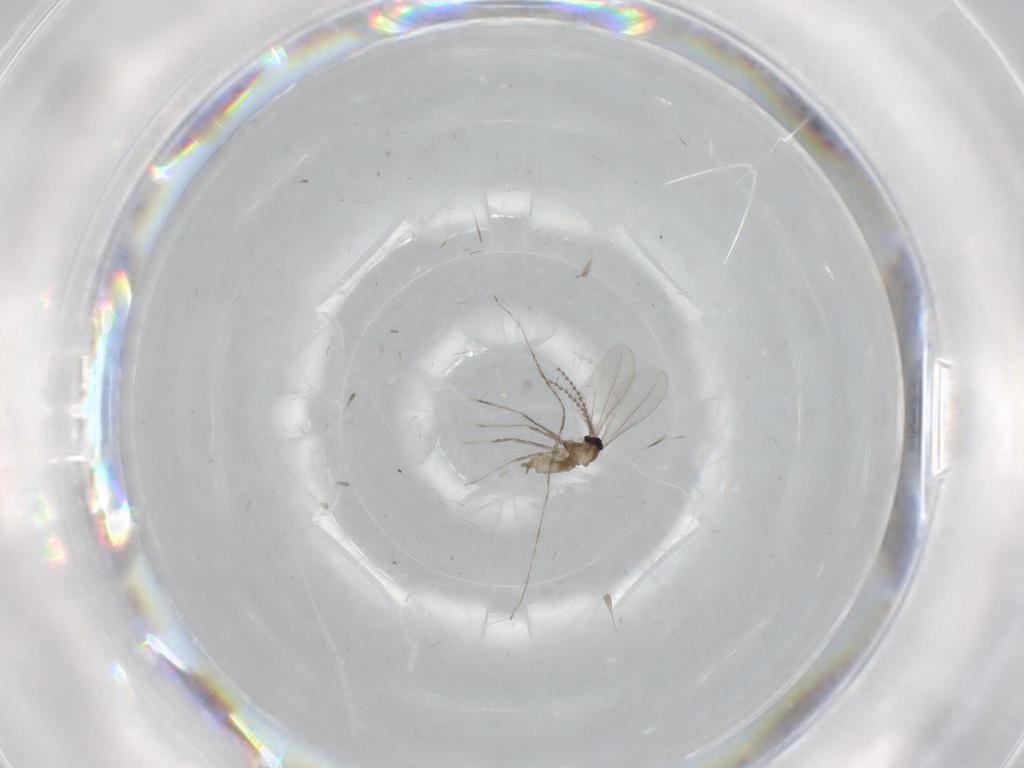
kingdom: Animalia
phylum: Arthropoda
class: Insecta
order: Diptera
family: Cecidomyiidae
